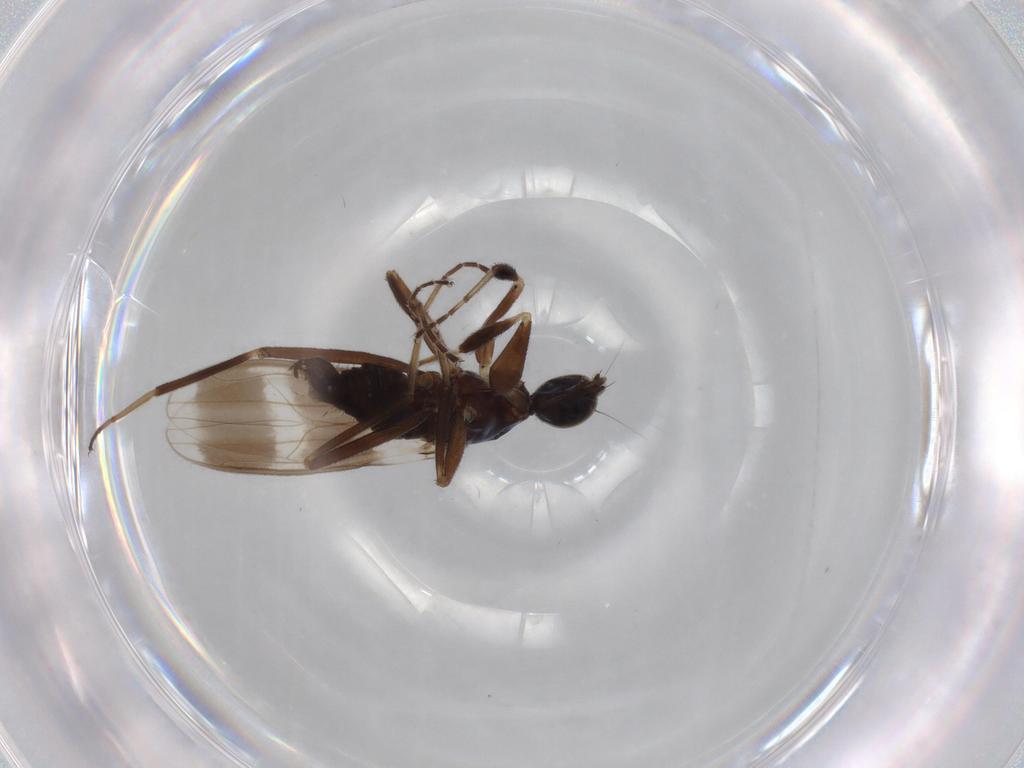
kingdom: Animalia
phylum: Arthropoda
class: Insecta
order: Diptera
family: Hybotidae
